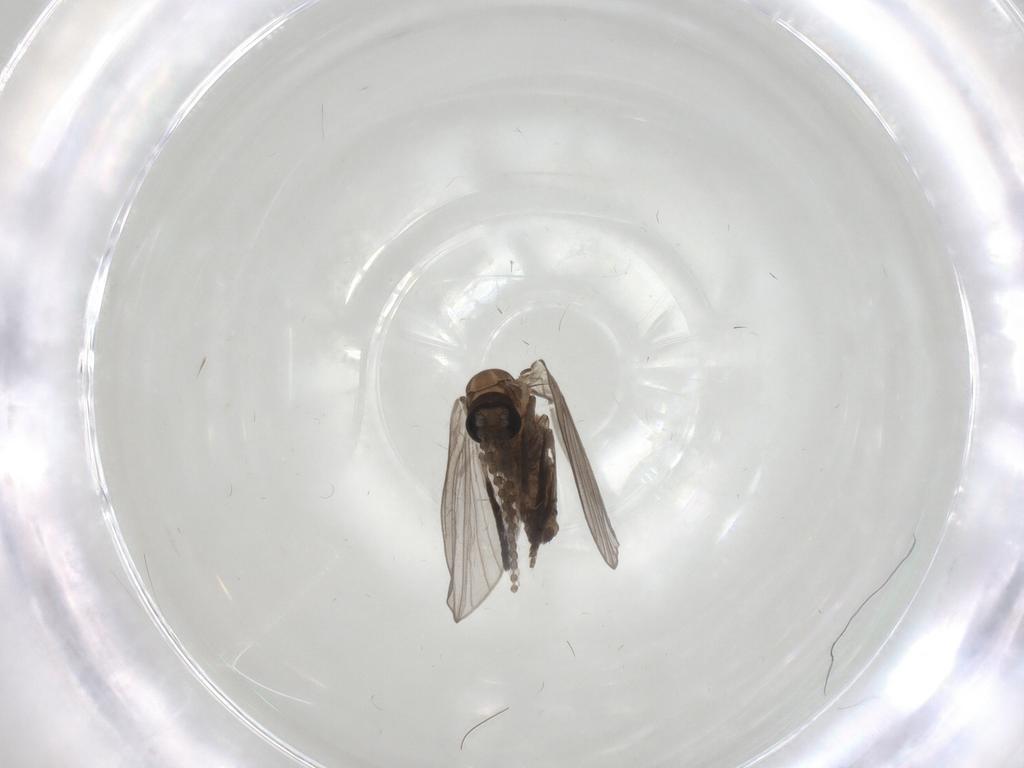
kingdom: Animalia
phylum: Arthropoda
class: Insecta
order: Diptera
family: Psychodidae
